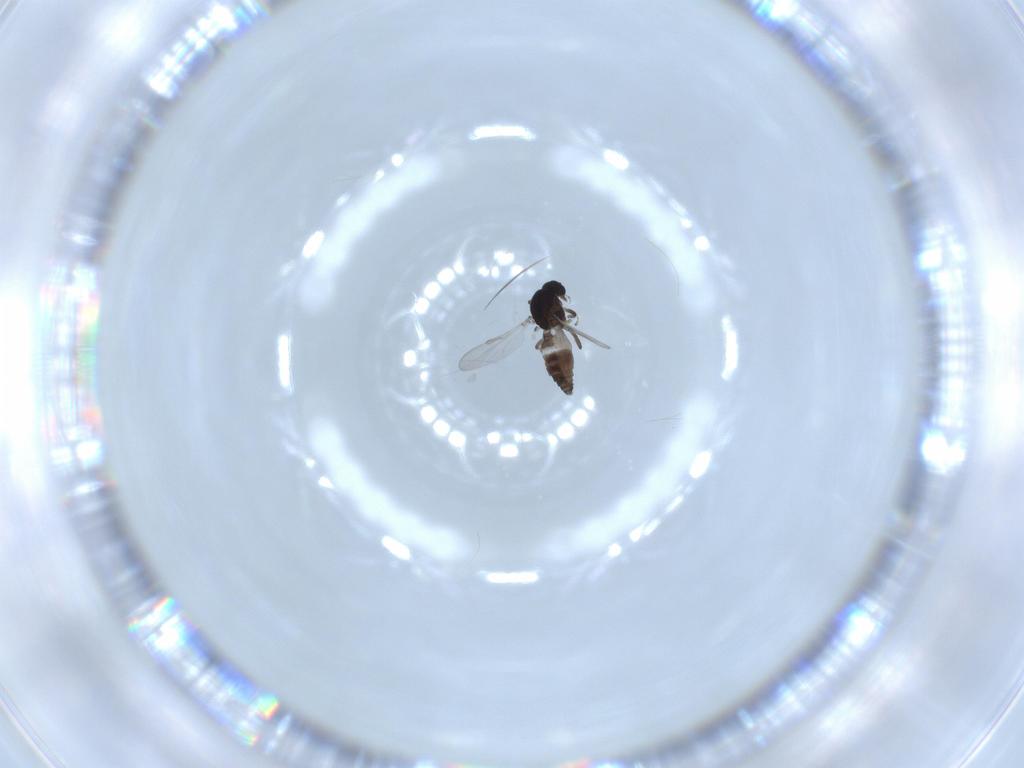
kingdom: Animalia
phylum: Arthropoda
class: Insecta
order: Diptera
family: Ceratopogonidae
